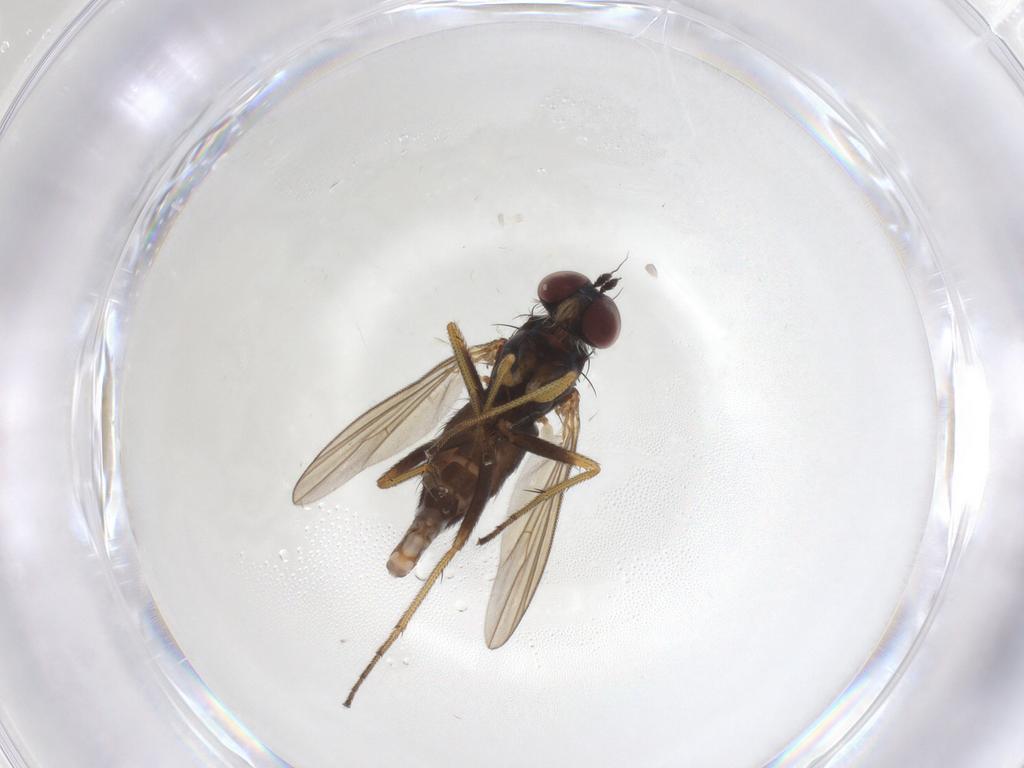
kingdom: Animalia
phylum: Arthropoda
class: Insecta
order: Diptera
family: Dolichopodidae
